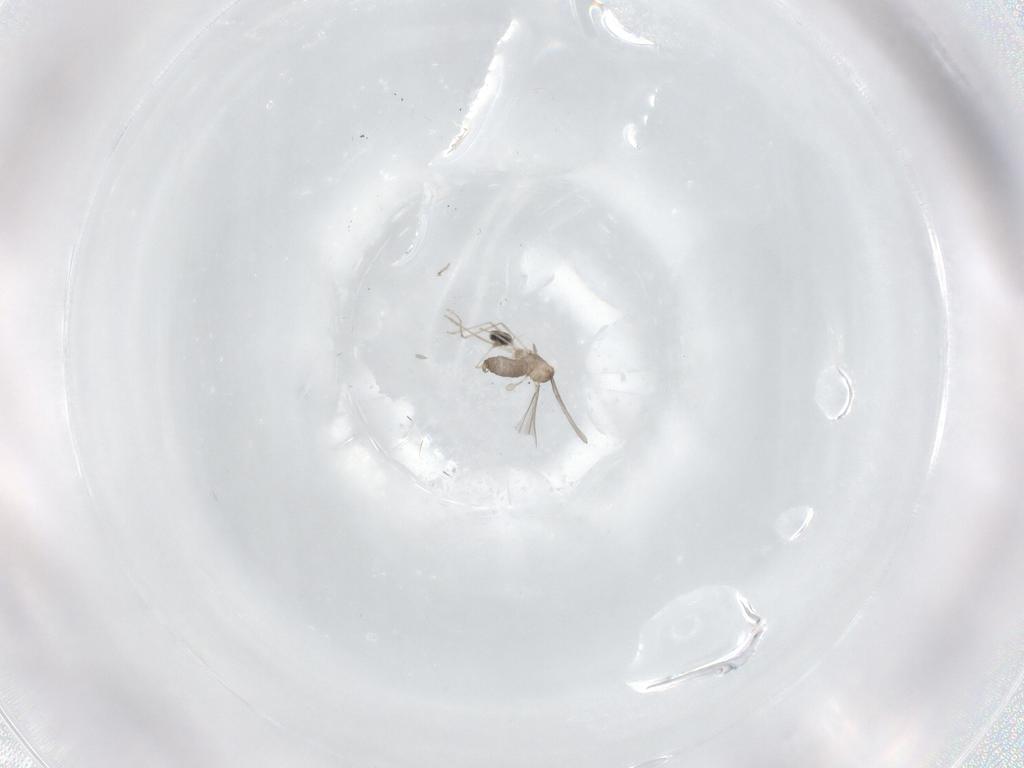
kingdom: Animalia
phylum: Arthropoda
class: Insecta
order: Diptera
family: Cecidomyiidae
